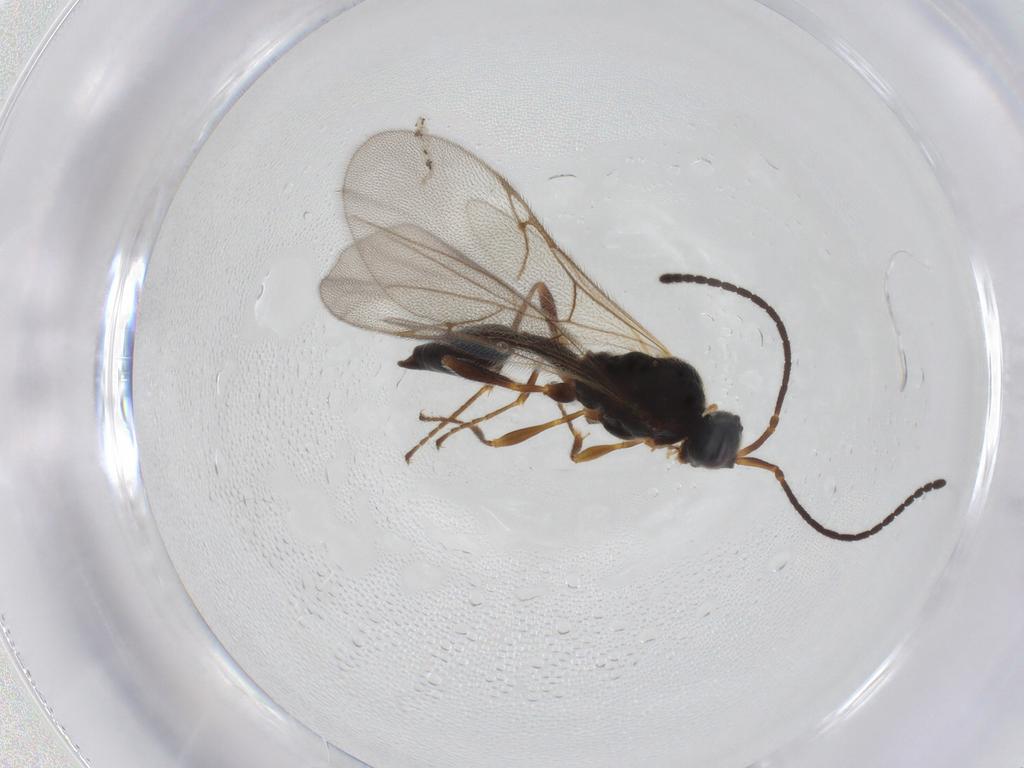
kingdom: Animalia
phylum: Arthropoda
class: Insecta
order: Hymenoptera
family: Diapriidae
